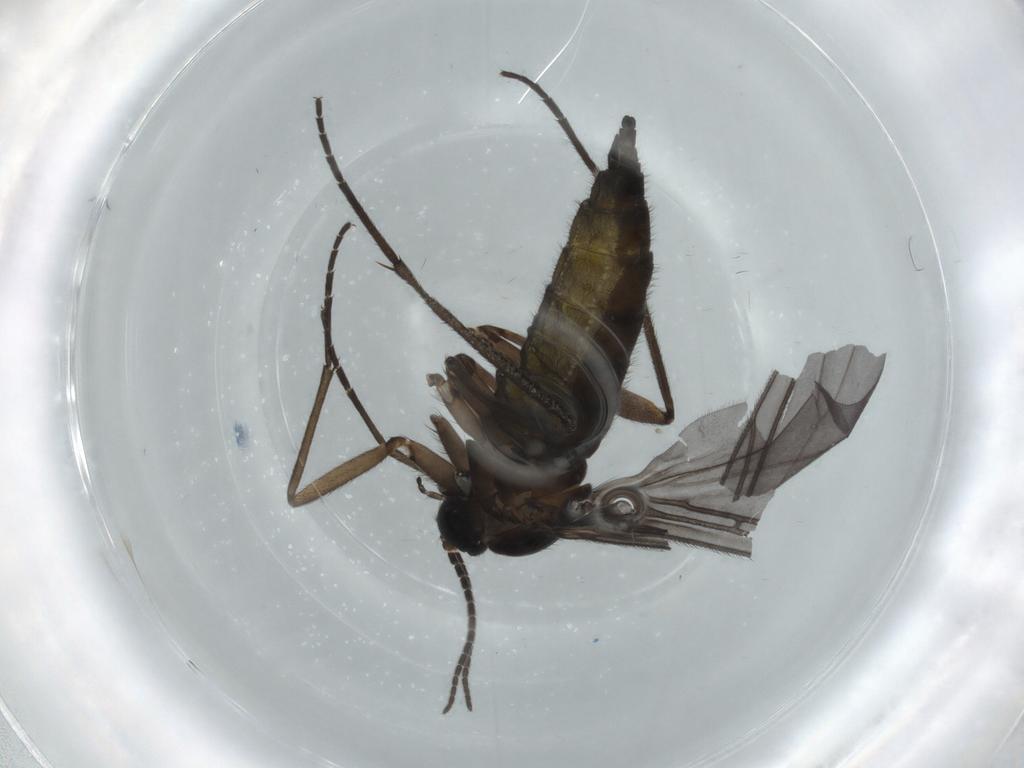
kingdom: Animalia
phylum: Arthropoda
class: Insecta
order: Diptera
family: Sciaridae
